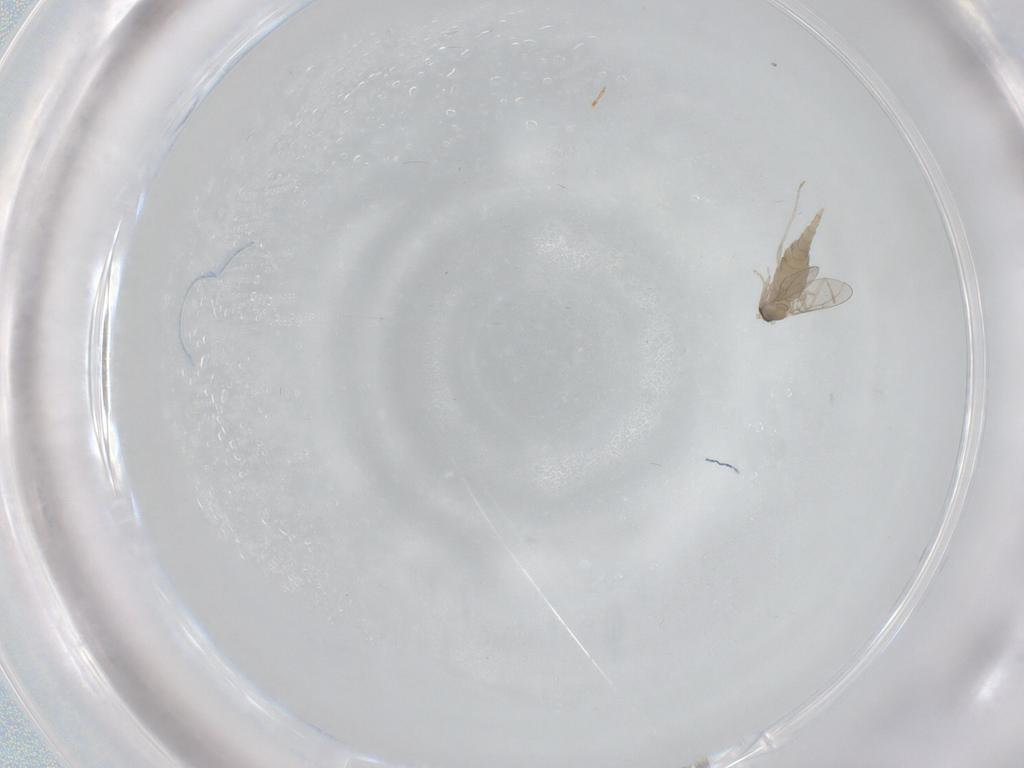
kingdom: Animalia
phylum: Arthropoda
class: Insecta
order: Diptera
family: Cecidomyiidae
